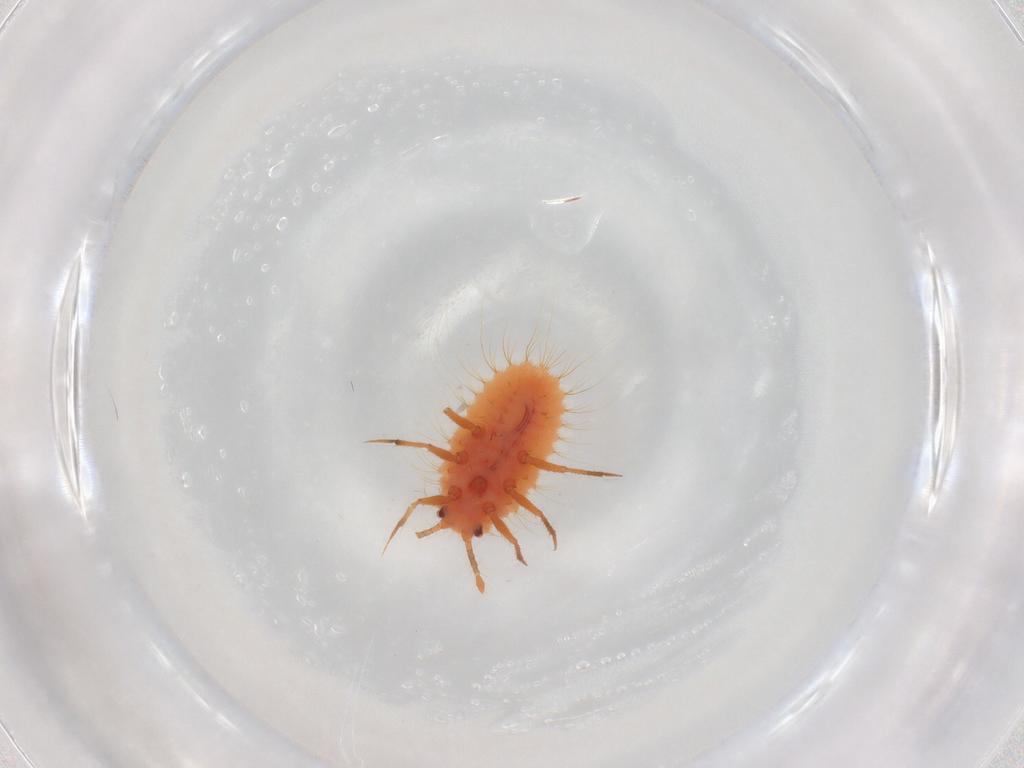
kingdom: Animalia
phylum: Arthropoda
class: Insecta
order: Hemiptera
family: Coccoidea_incertae_sedis
